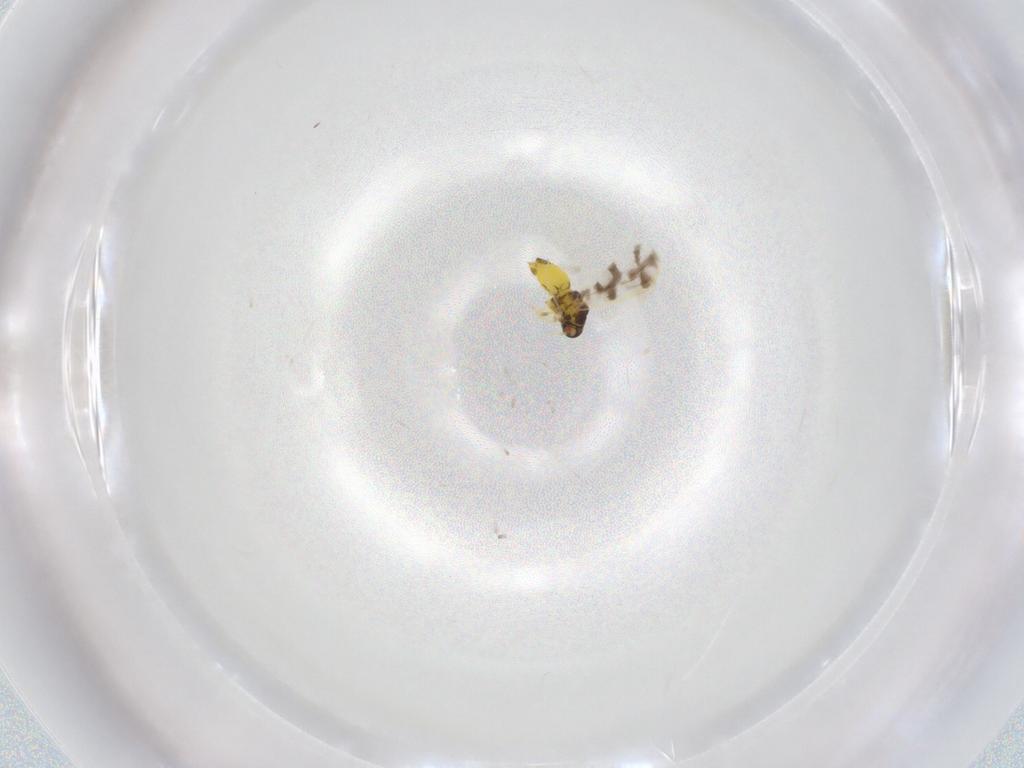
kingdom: Animalia
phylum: Arthropoda
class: Insecta
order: Hemiptera
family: Aleyrodidae
